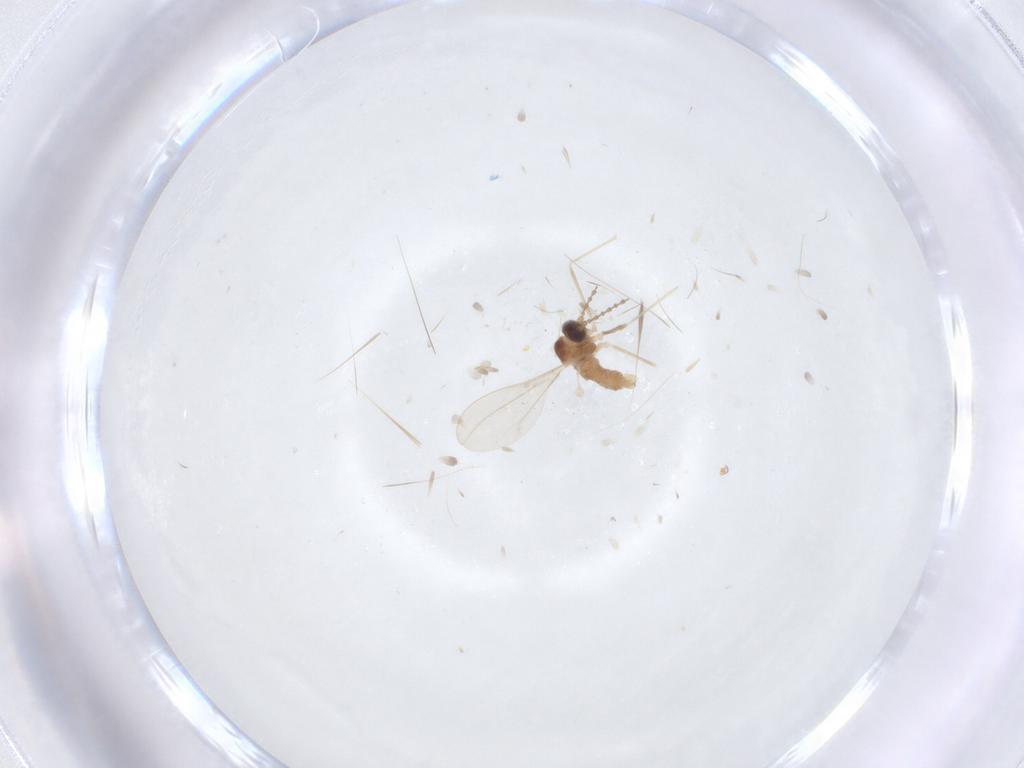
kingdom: Animalia
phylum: Arthropoda
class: Insecta
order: Diptera
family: Cecidomyiidae
